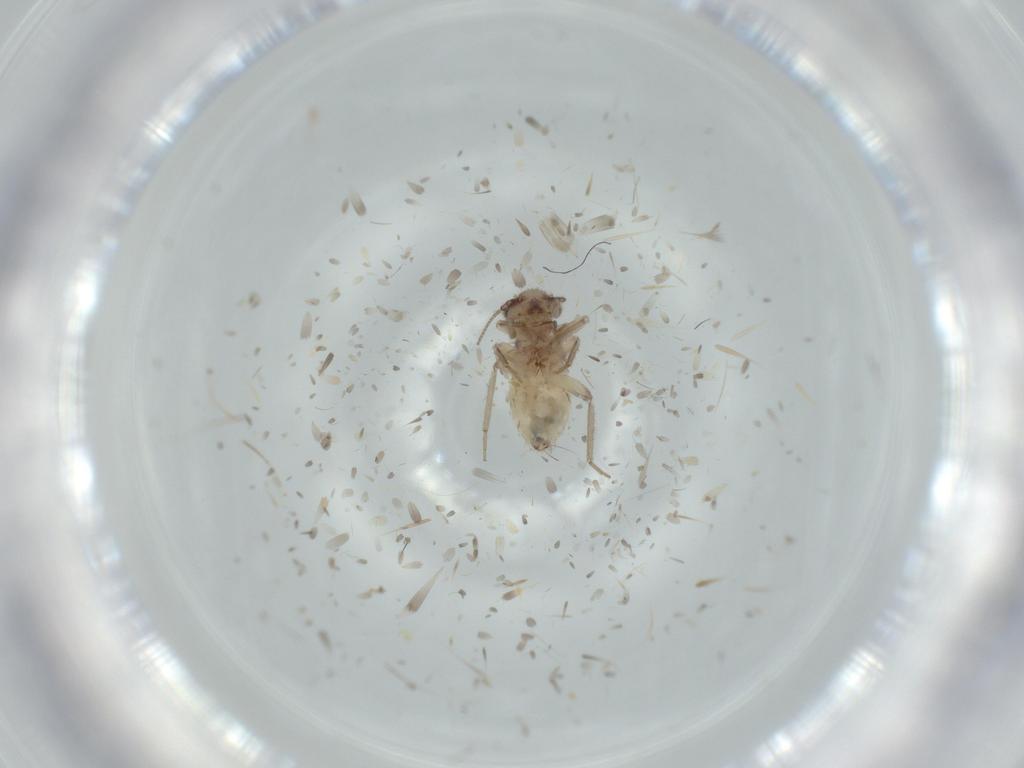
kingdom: Animalia
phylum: Arthropoda
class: Insecta
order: Psocodea
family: Lepidopsocidae
